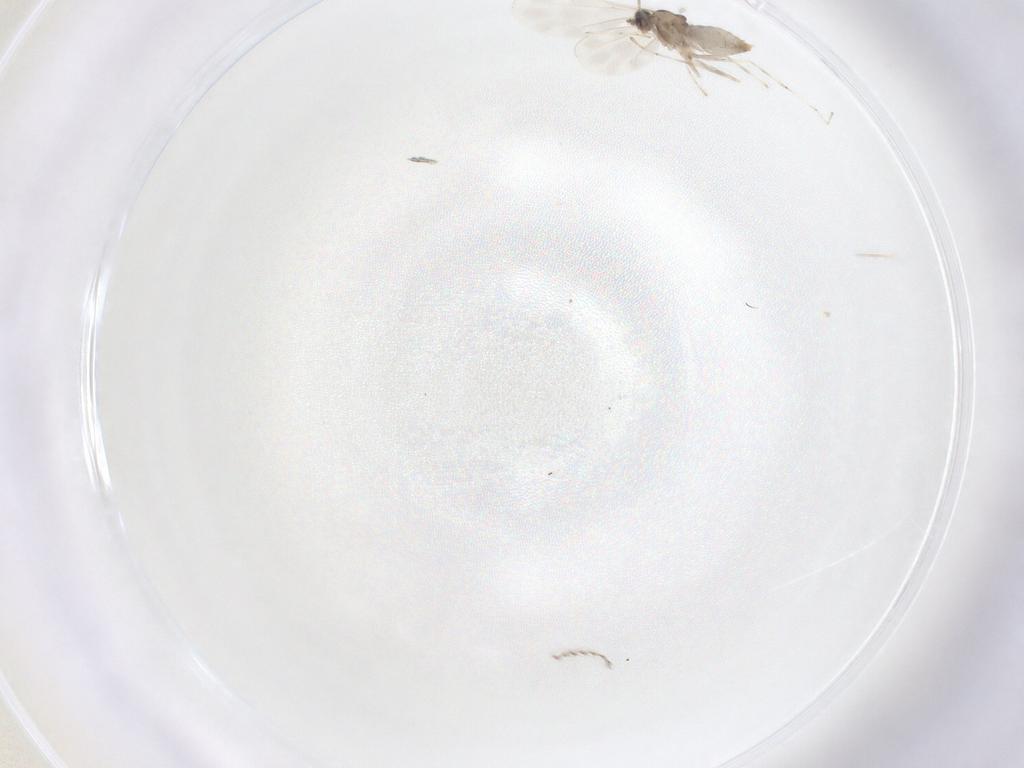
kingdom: Animalia
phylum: Arthropoda
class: Insecta
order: Diptera
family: Cecidomyiidae
